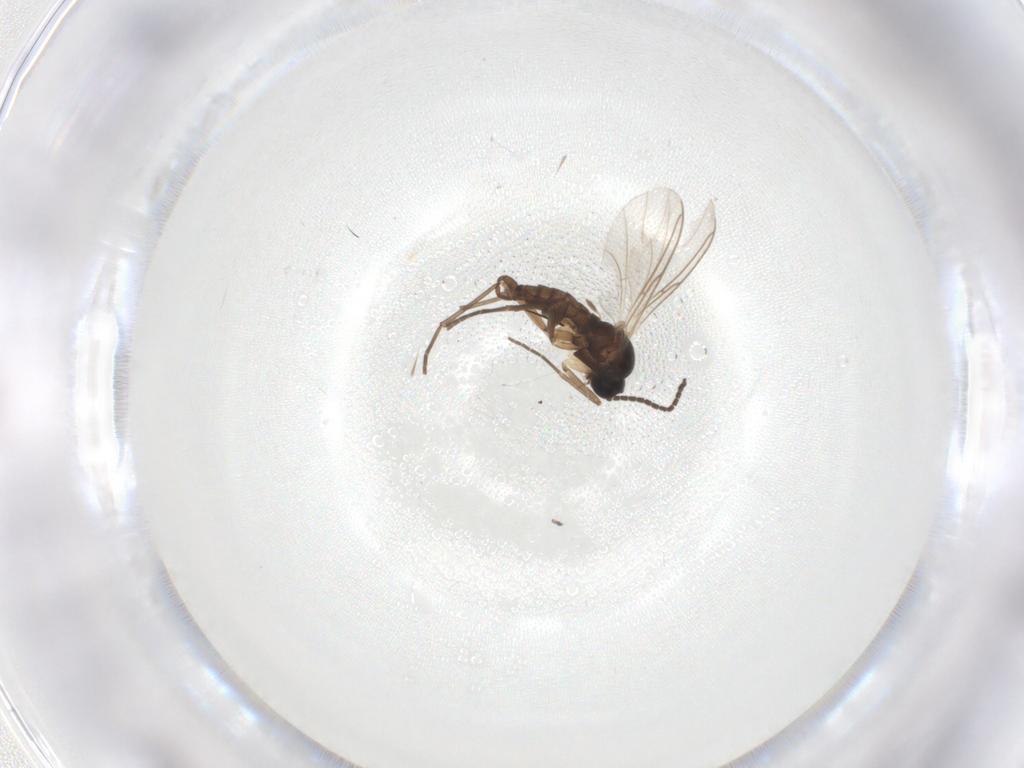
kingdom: Animalia
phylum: Arthropoda
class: Insecta
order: Diptera
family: Sciaridae
